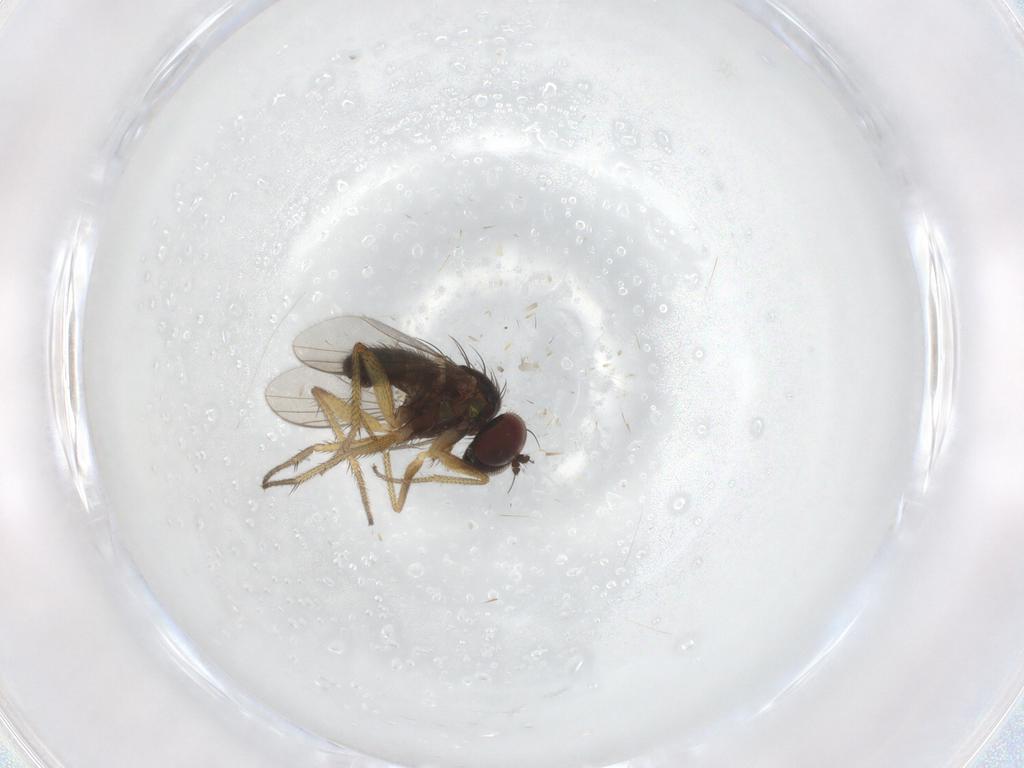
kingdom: Animalia
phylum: Arthropoda
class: Insecta
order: Diptera
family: Dolichopodidae
